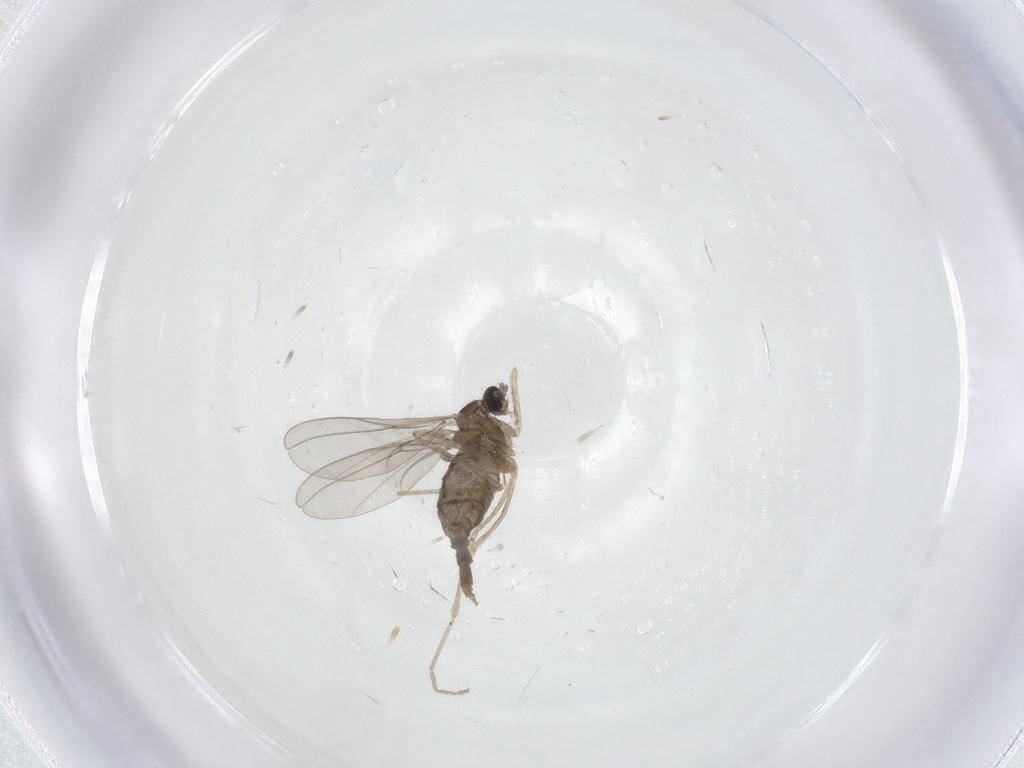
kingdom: Animalia
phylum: Arthropoda
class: Insecta
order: Diptera
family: Cecidomyiidae
